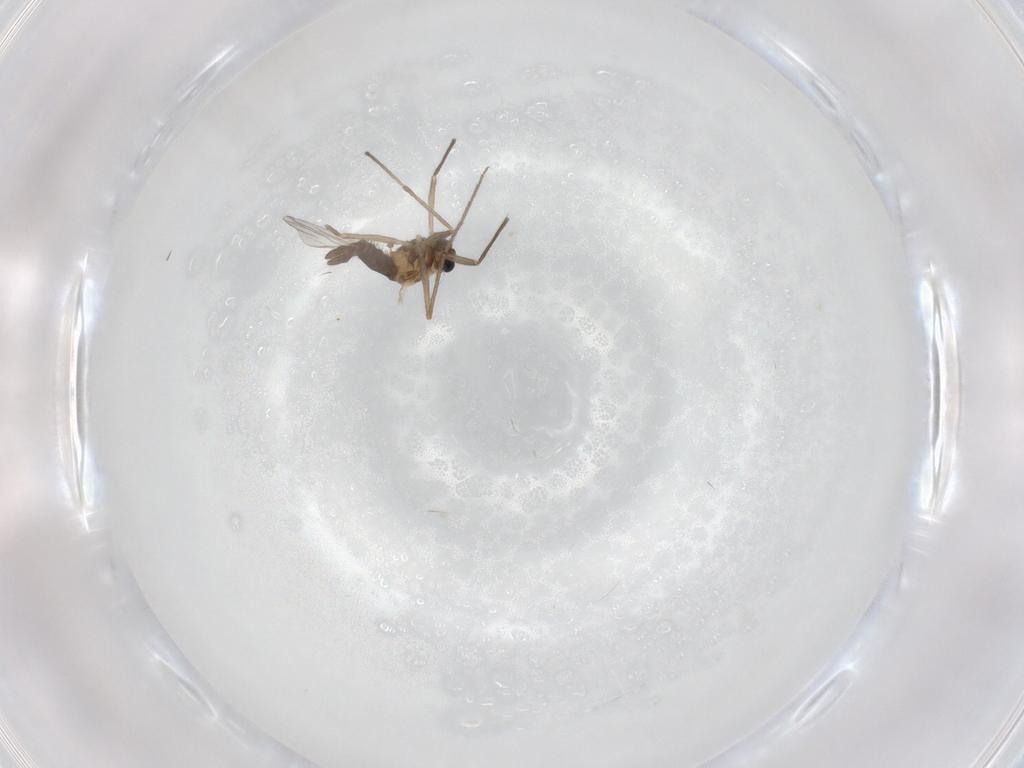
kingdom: Animalia
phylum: Arthropoda
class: Insecta
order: Diptera
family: Chironomidae
